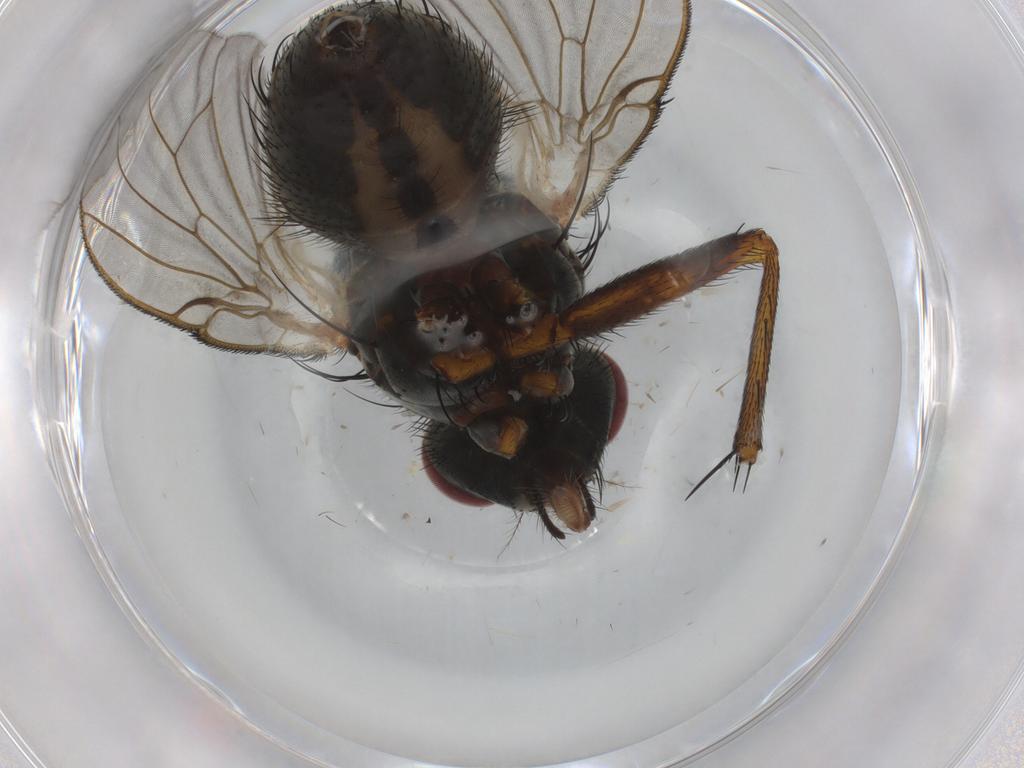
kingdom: Animalia
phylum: Arthropoda
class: Insecta
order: Diptera
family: Muscidae
